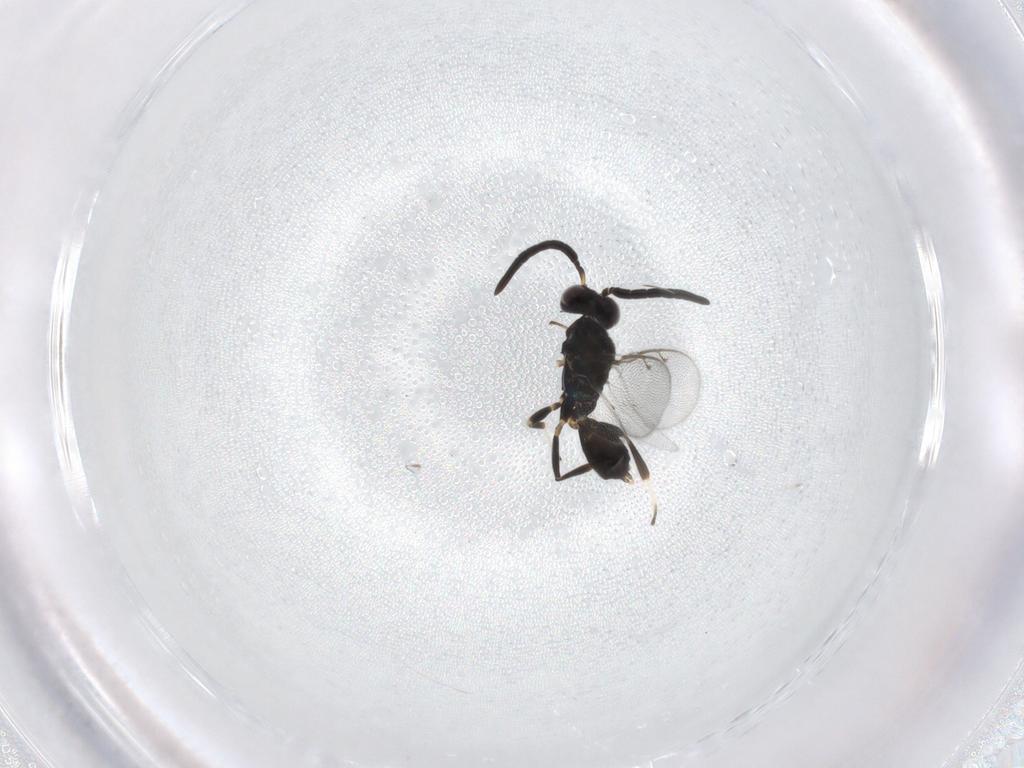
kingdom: Animalia
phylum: Arthropoda
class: Insecta
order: Hymenoptera
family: Eupelmidae
